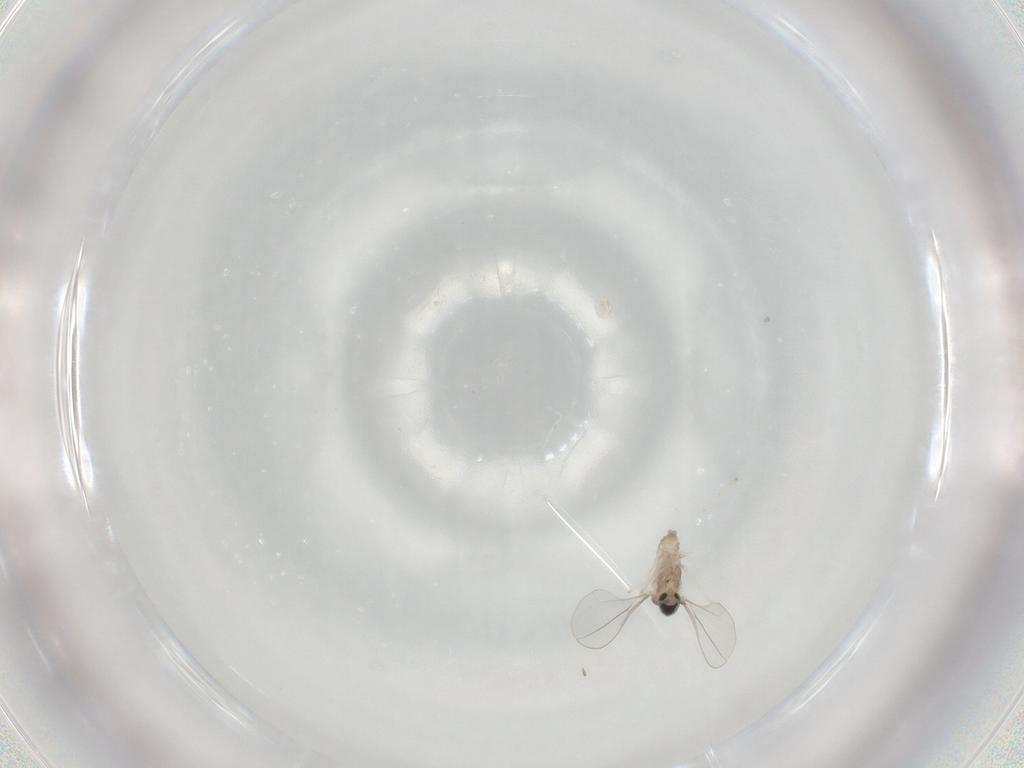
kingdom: Animalia
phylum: Arthropoda
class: Insecta
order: Diptera
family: Cecidomyiidae
